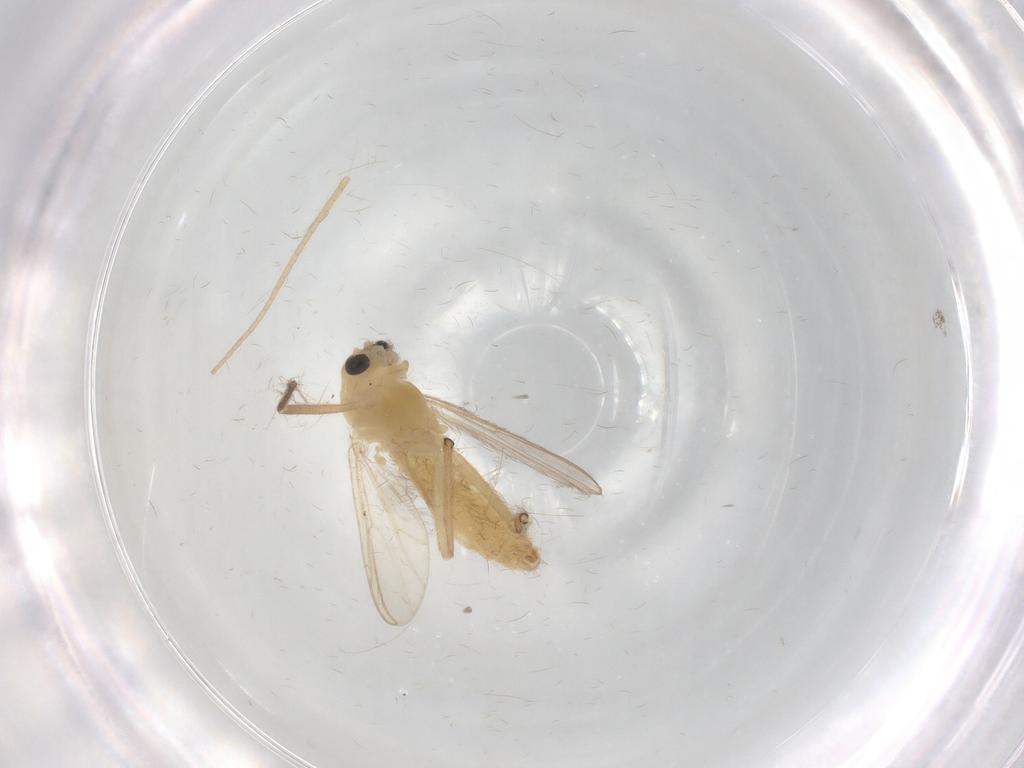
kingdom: Animalia
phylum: Arthropoda
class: Insecta
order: Diptera
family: Chironomidae
